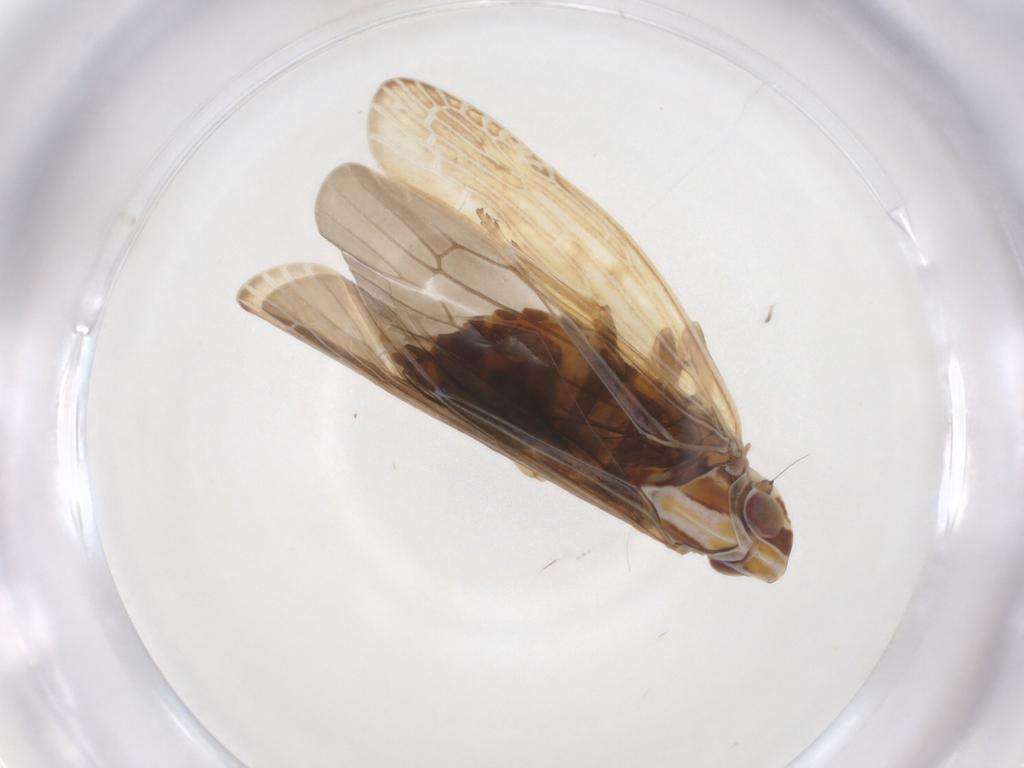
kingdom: Animalia
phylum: Arthropoda
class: Insecta
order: Hemiptera
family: Achilidae
